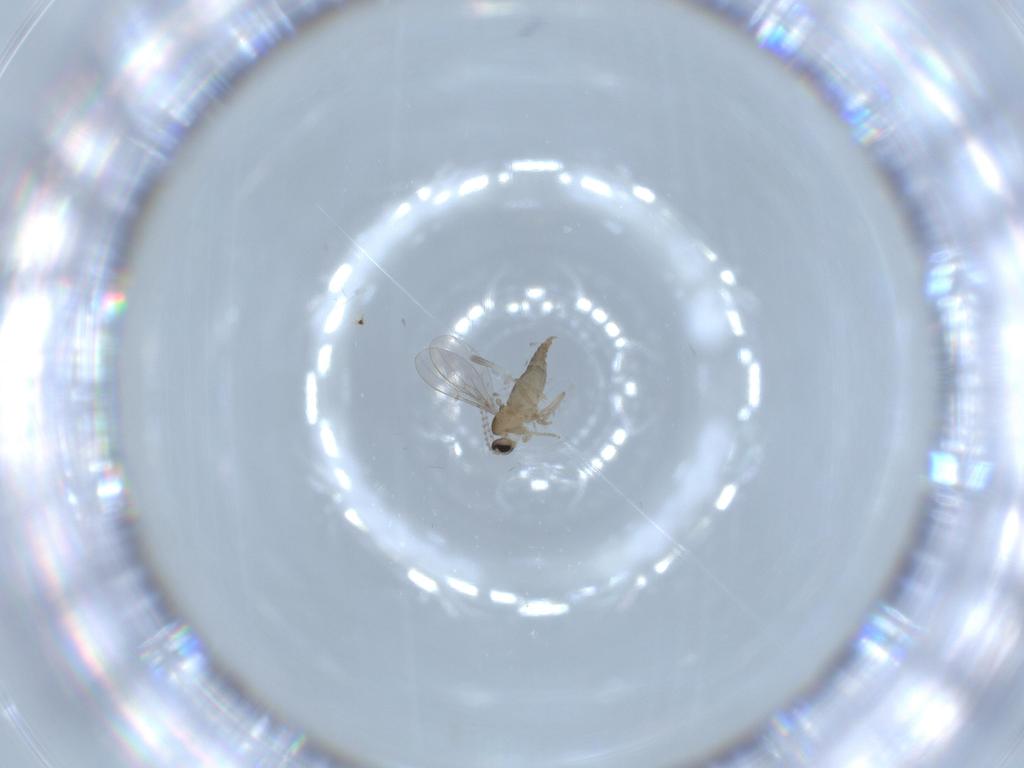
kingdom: Animalia
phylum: Arthropoda
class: Insecta
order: Diptera
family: Cecidomyiidae
